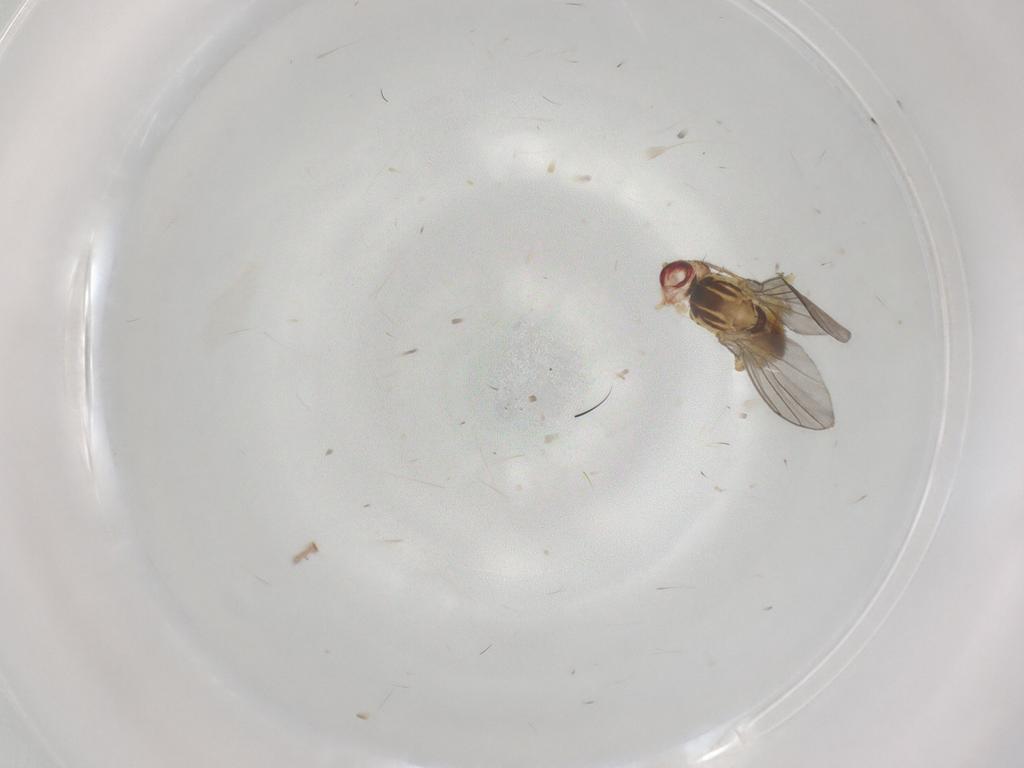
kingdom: Animalia
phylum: Arthropoda
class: Insecta
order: Diptera
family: Agromyzidae
